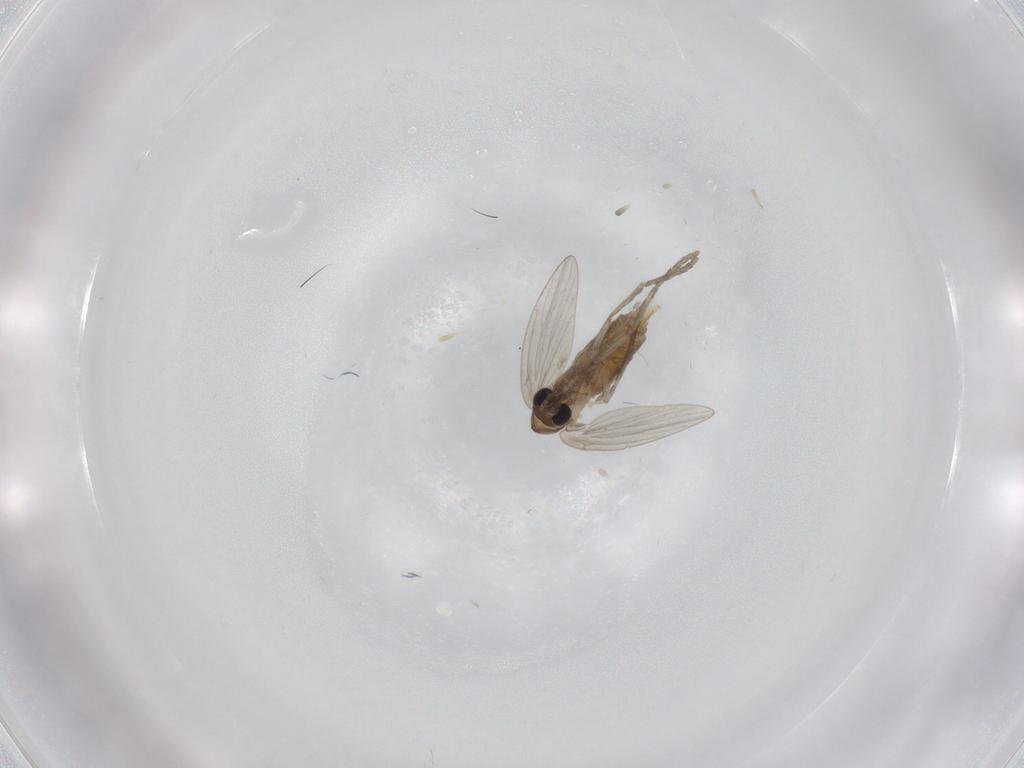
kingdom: Animalia
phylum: Arthropoda
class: Insecta
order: Diptera
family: Psychodidae
